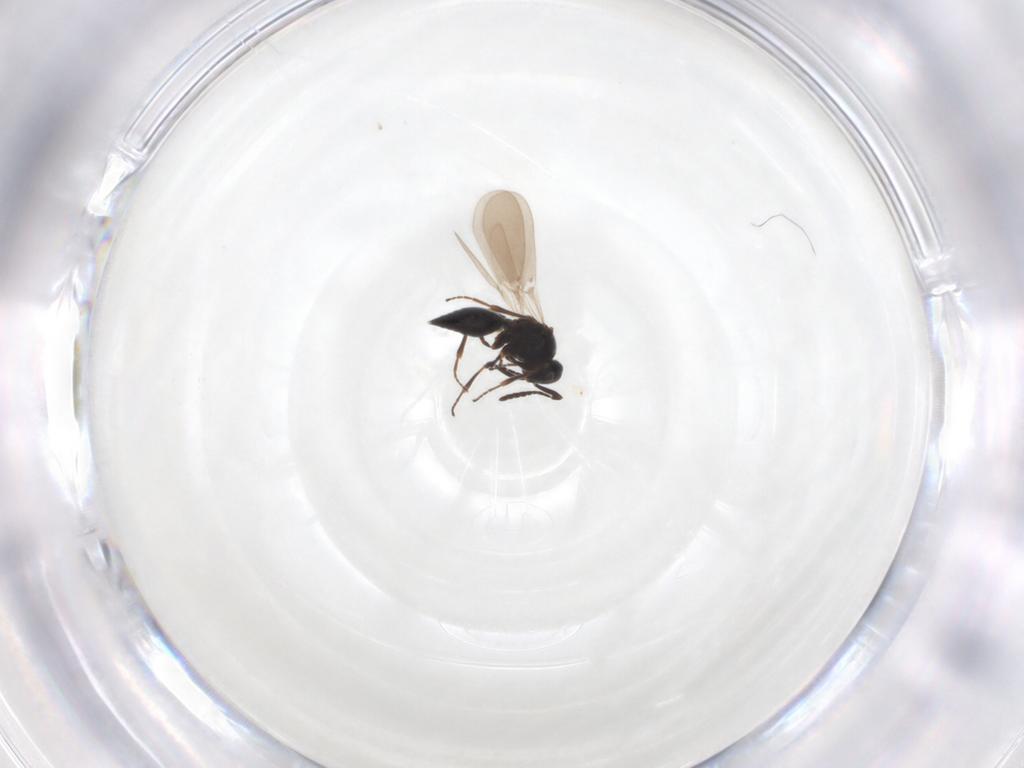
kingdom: Animalia
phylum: Arthropoda
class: Insecta
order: Hymenoptera
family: Platygastridae
